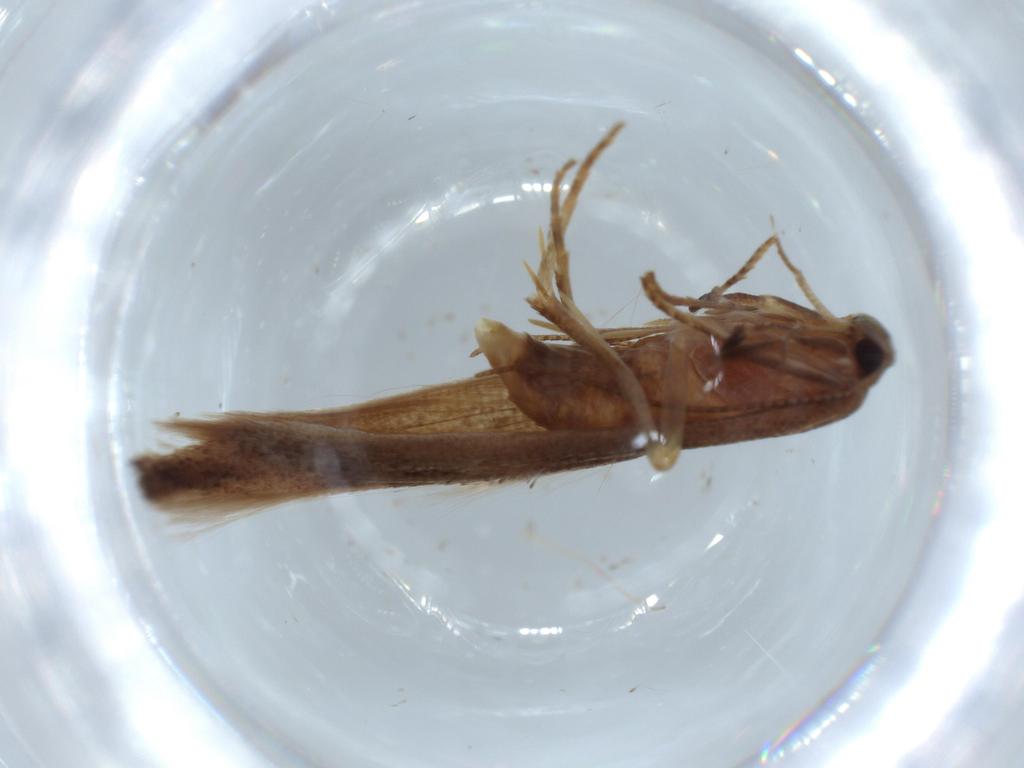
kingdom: Animalia
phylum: Arthropoda
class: Insecta
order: Lepidoptera
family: Stathmopodidae
